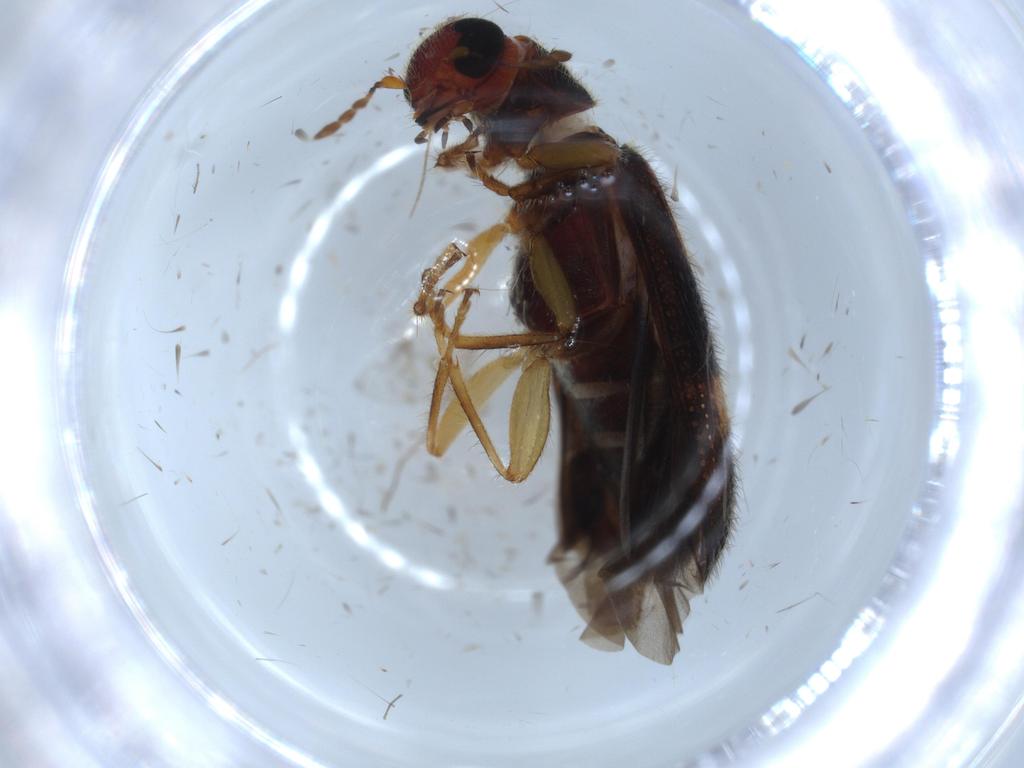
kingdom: Animalia
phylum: Arthropoda
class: Insecta
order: Coleoptera
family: Cleridae
